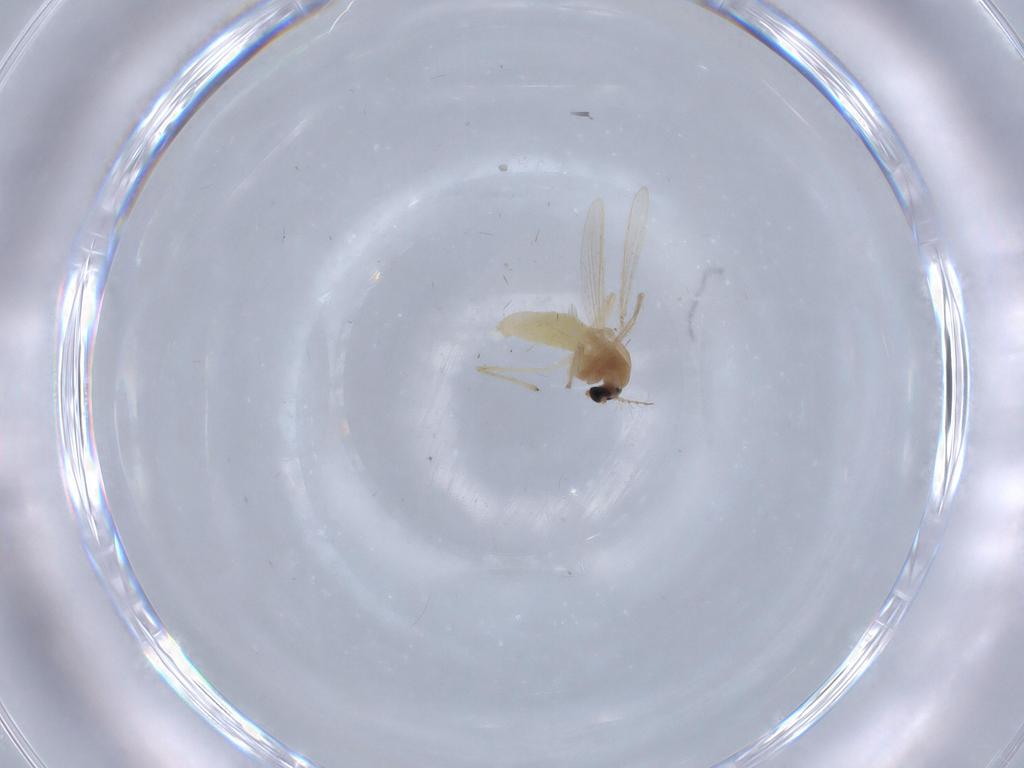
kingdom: Animalia
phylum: Arthropoda
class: Insecta
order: Diptera
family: Chironomidae
